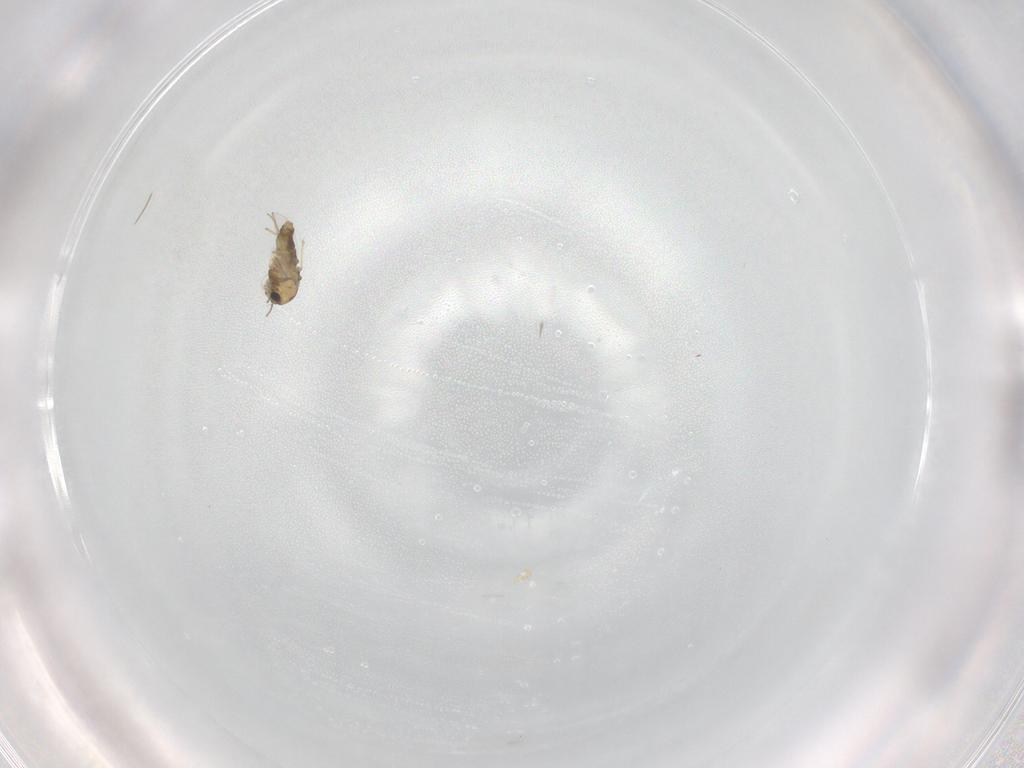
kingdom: Animalia
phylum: Arthropoda
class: Insecta
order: Diptera
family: Chironomidae
